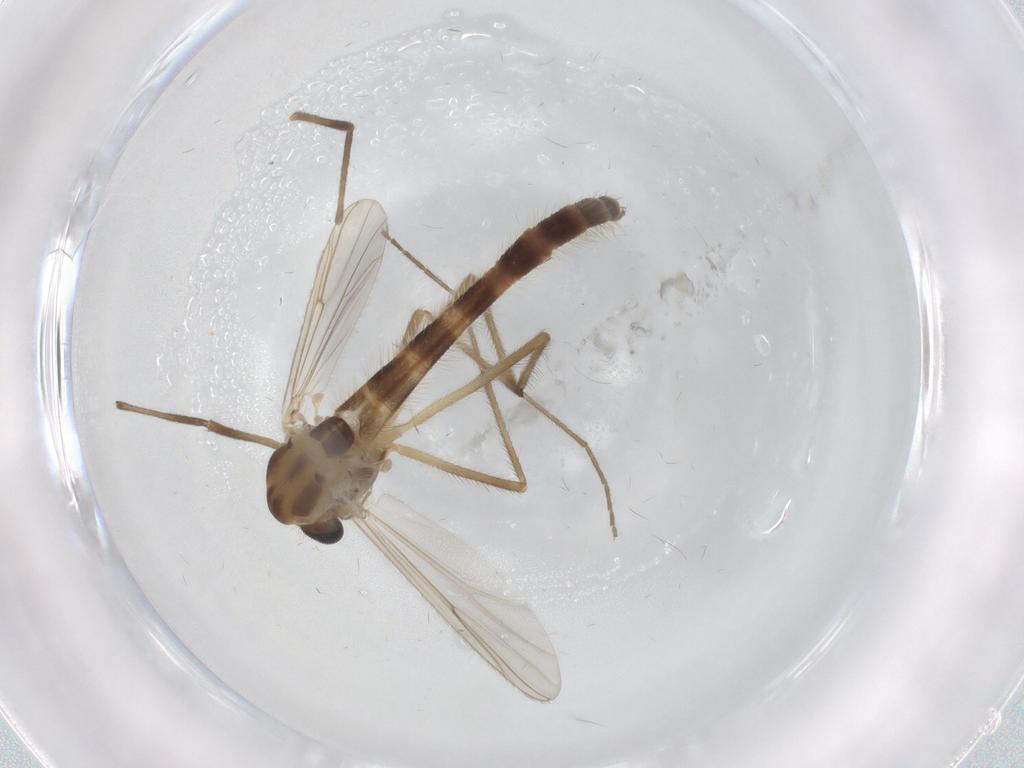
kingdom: Animalia
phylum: Arthropoda
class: Insecta
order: Diptera
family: Chironomidae
